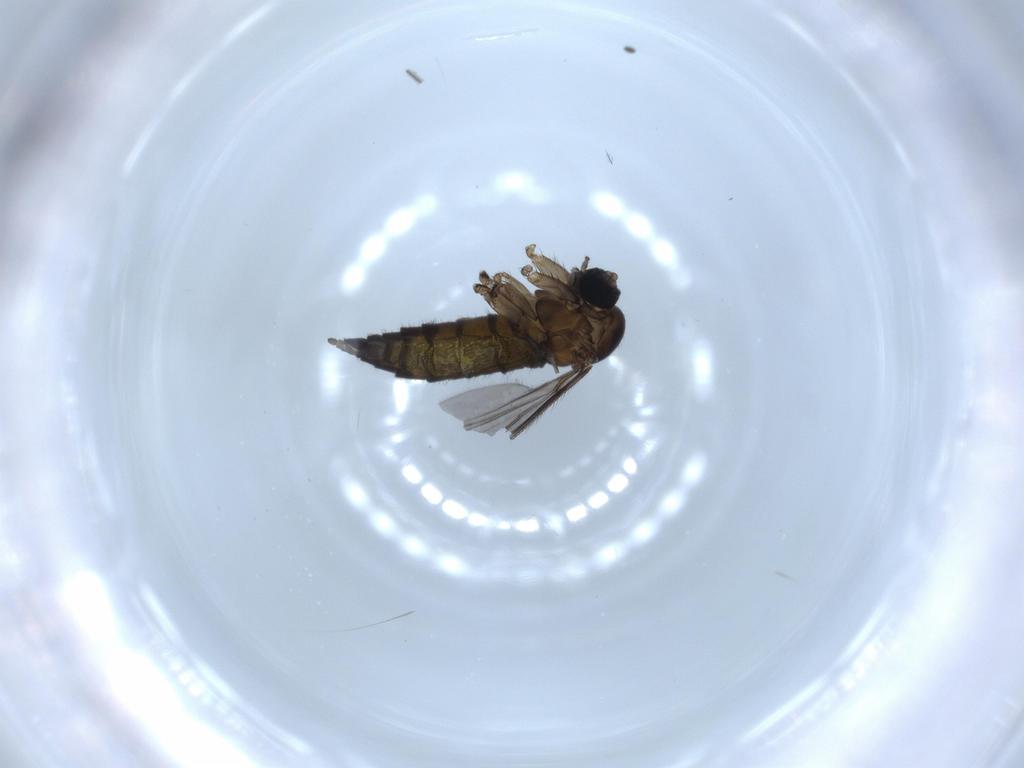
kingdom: Animalia
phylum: Arthropoda
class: Insecta
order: Diptera
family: Sciaridae
